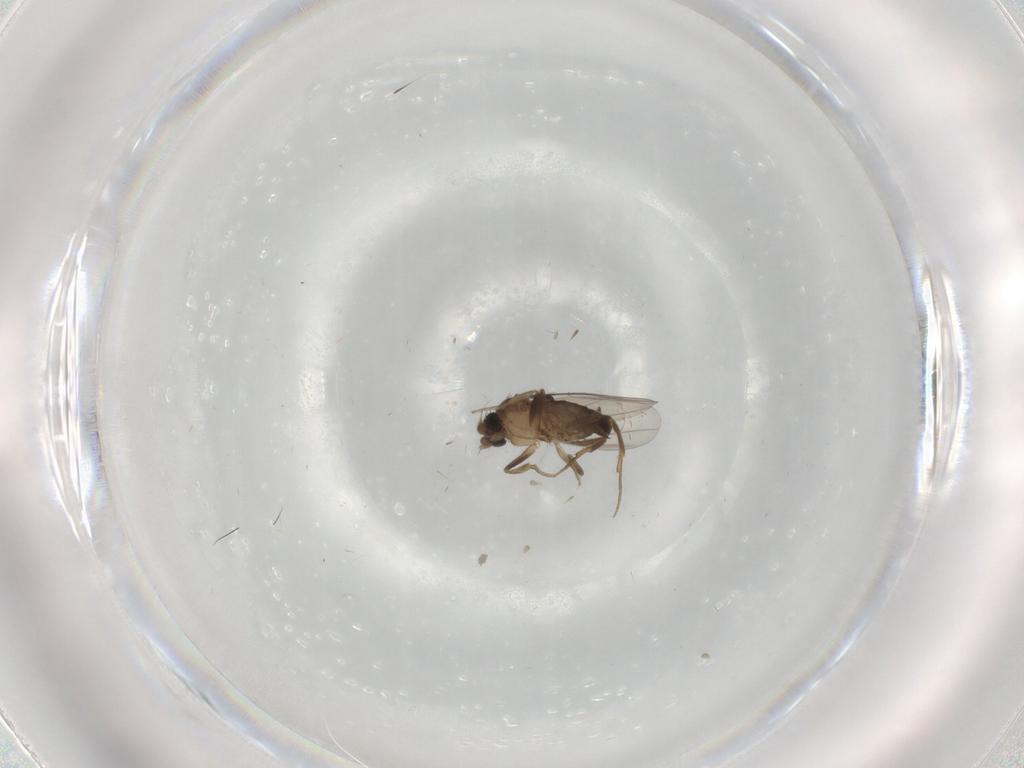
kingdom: Animalia
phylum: Arthropoda
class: Insecta
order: Diptera
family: Phoridae
